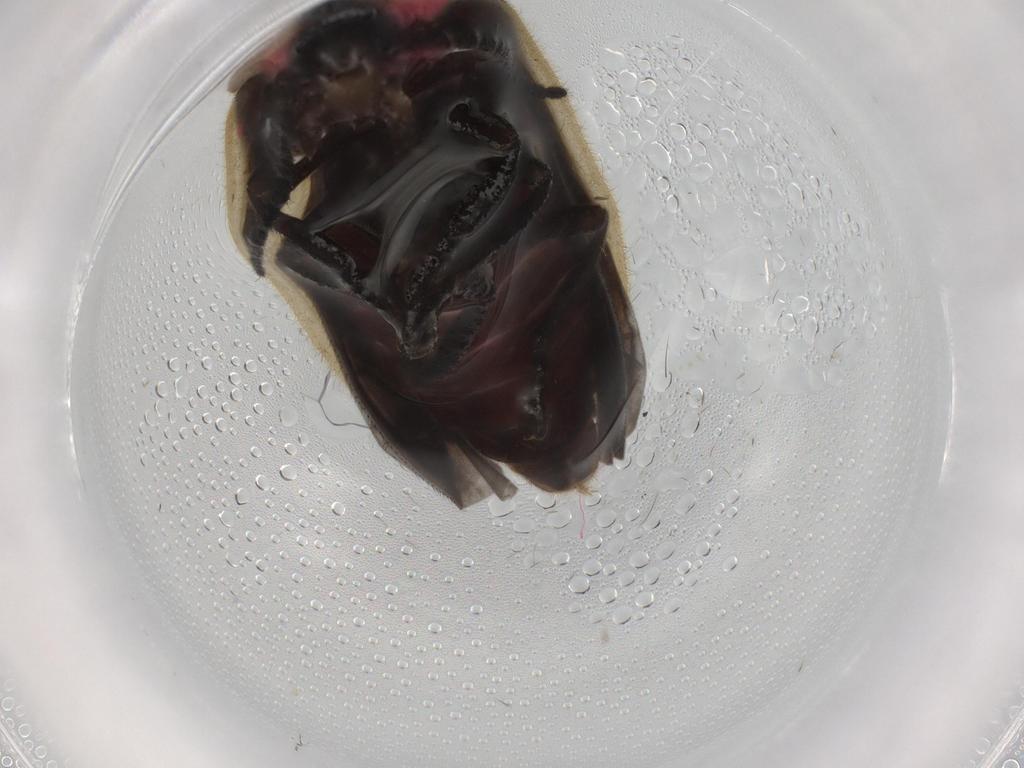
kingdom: Animalia
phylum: Arthropoda
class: Insecta
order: Coleoptera
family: Lampyridae
